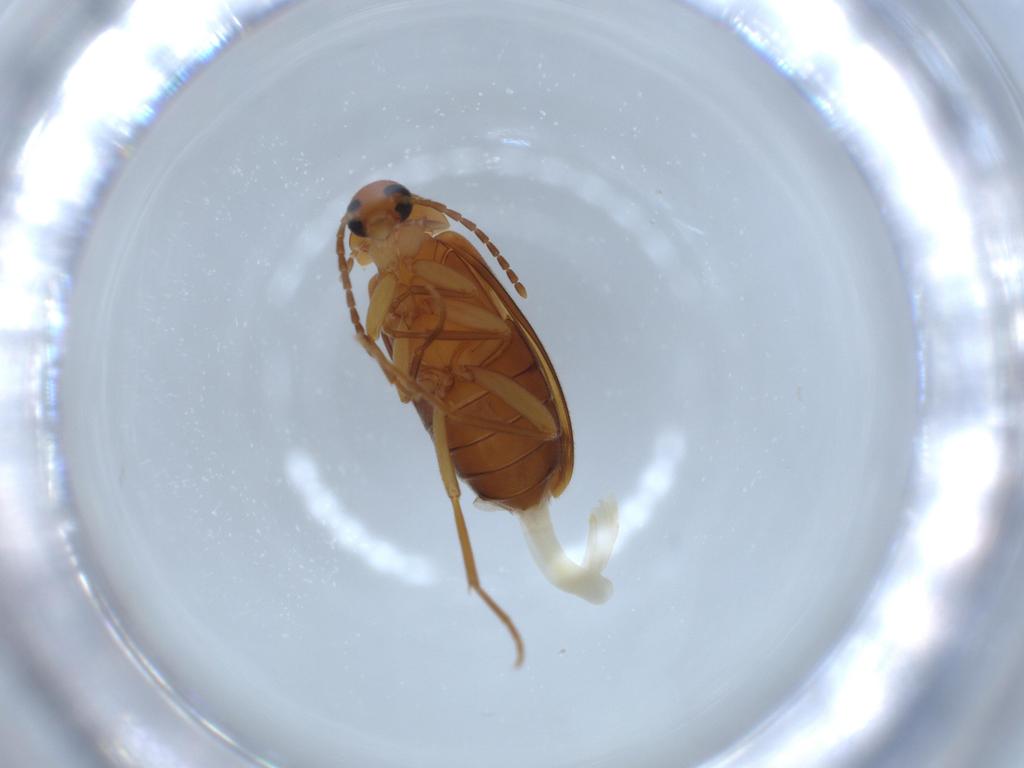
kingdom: Animalia
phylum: Arthropoda
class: Insecta
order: Coleoptera
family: Scraptiidae
